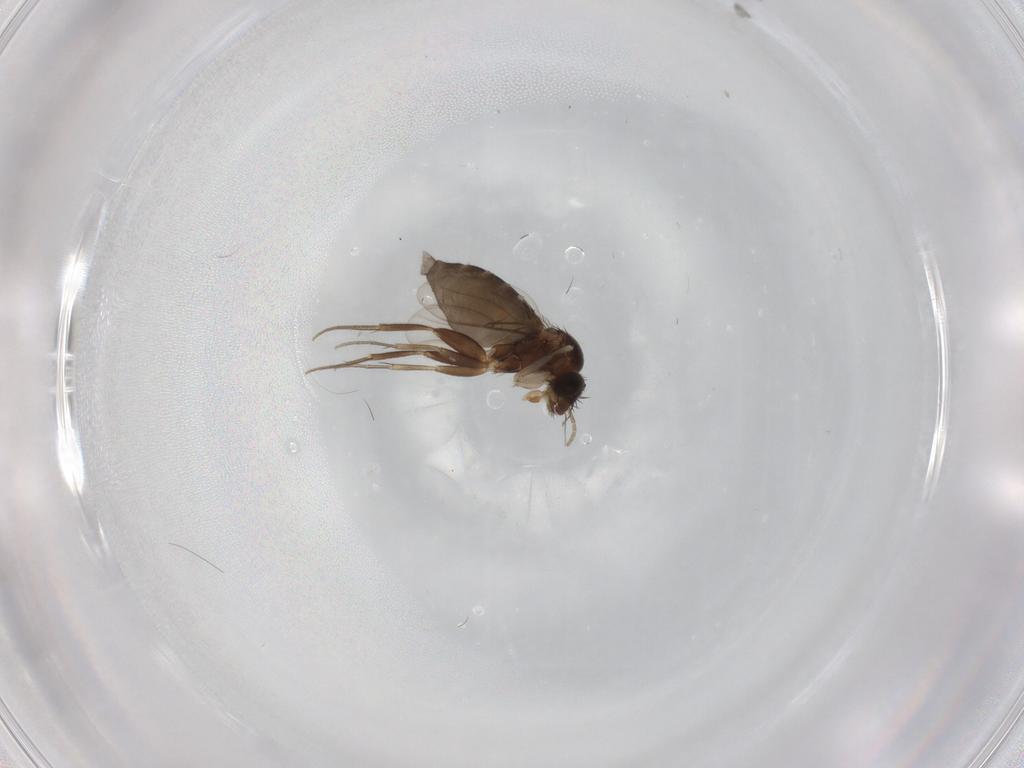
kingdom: Animalia
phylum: Arthropoda
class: Insecta
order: Diptera
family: Phoridae
